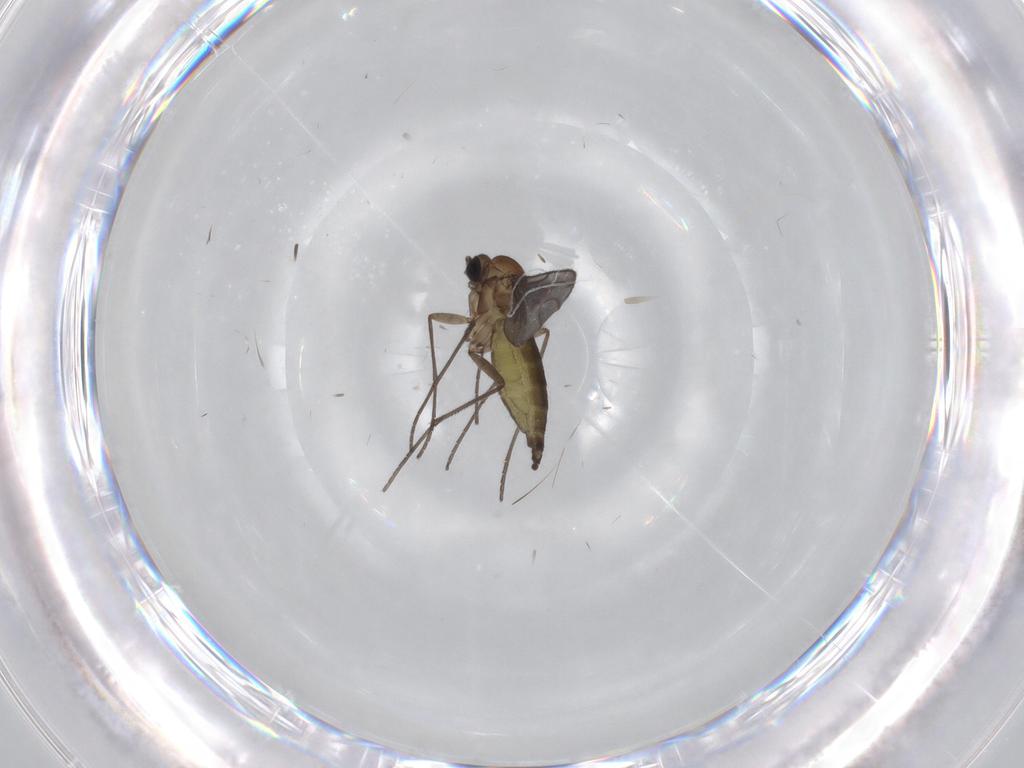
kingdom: Animalia
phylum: Arthropoda
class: Insecta
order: Diptera
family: Sciaridae
